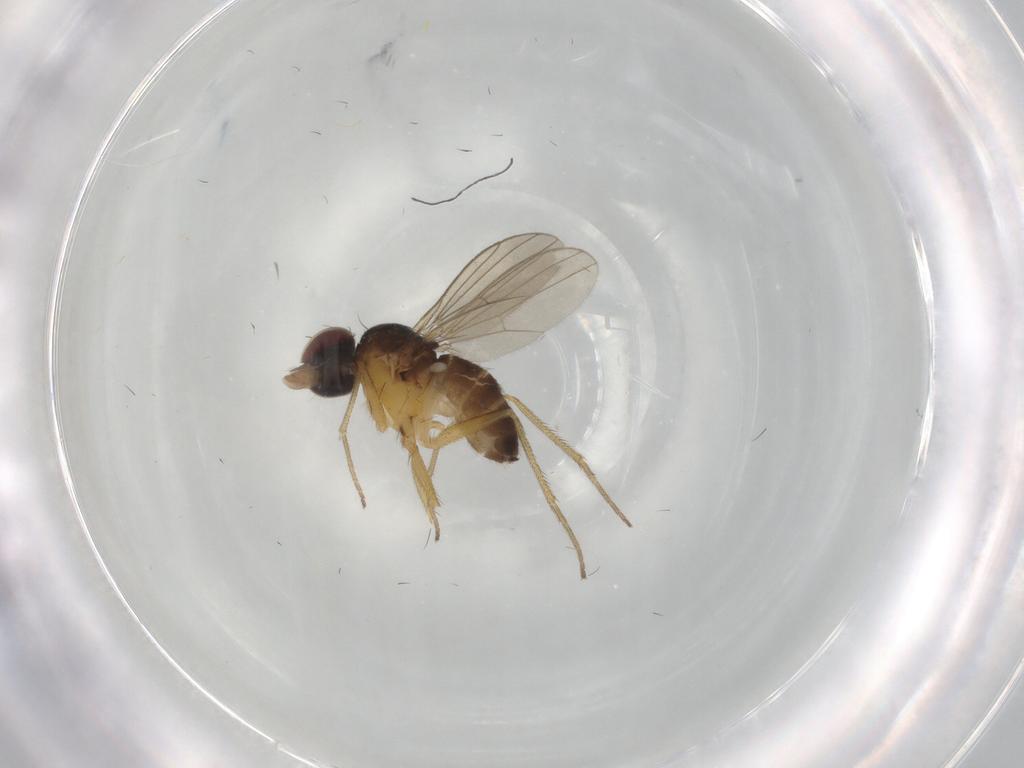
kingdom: Animalia
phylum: Arthropoda
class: Insecta
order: Diptera
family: Dolichopodidae
